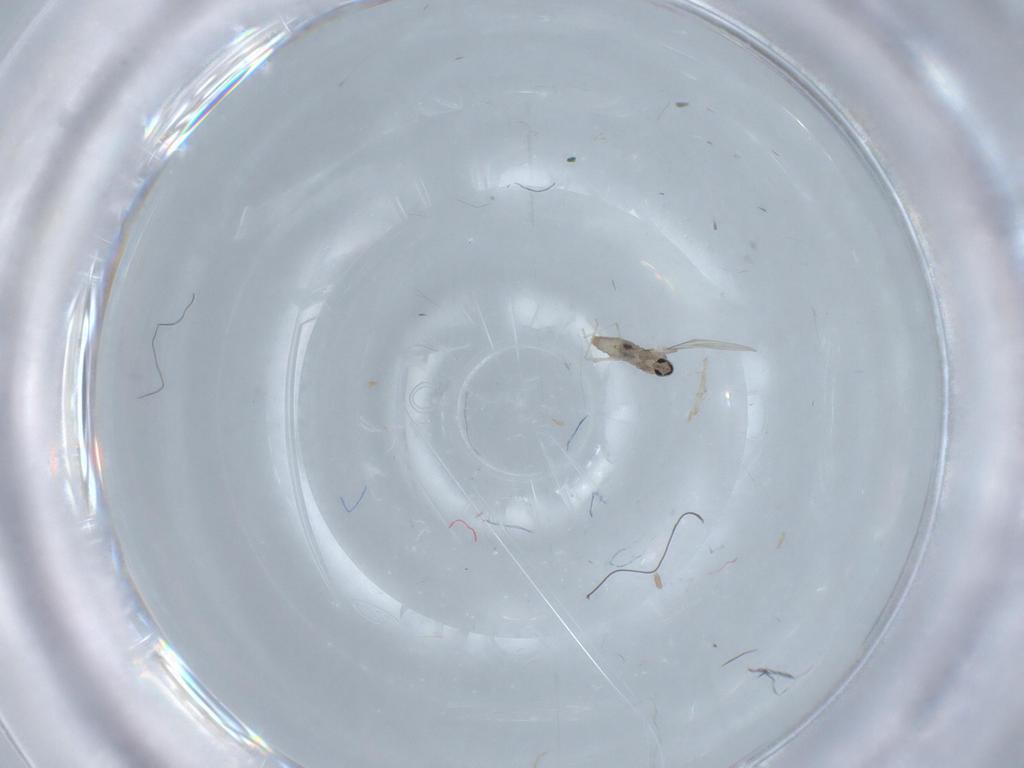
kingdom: Animalia
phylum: Arthropoda
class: Insecta
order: Diptera
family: Cecidomyiidae
